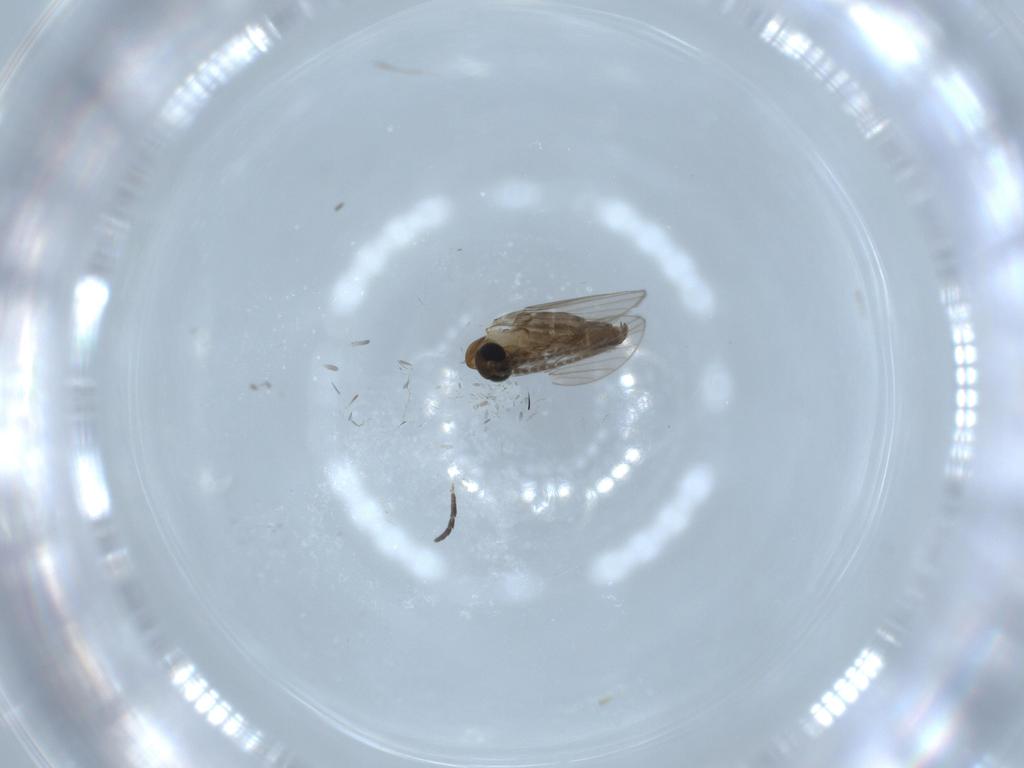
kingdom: Animalia
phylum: Arthropoda
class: Insecta
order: Diptera
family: Psychodidae
